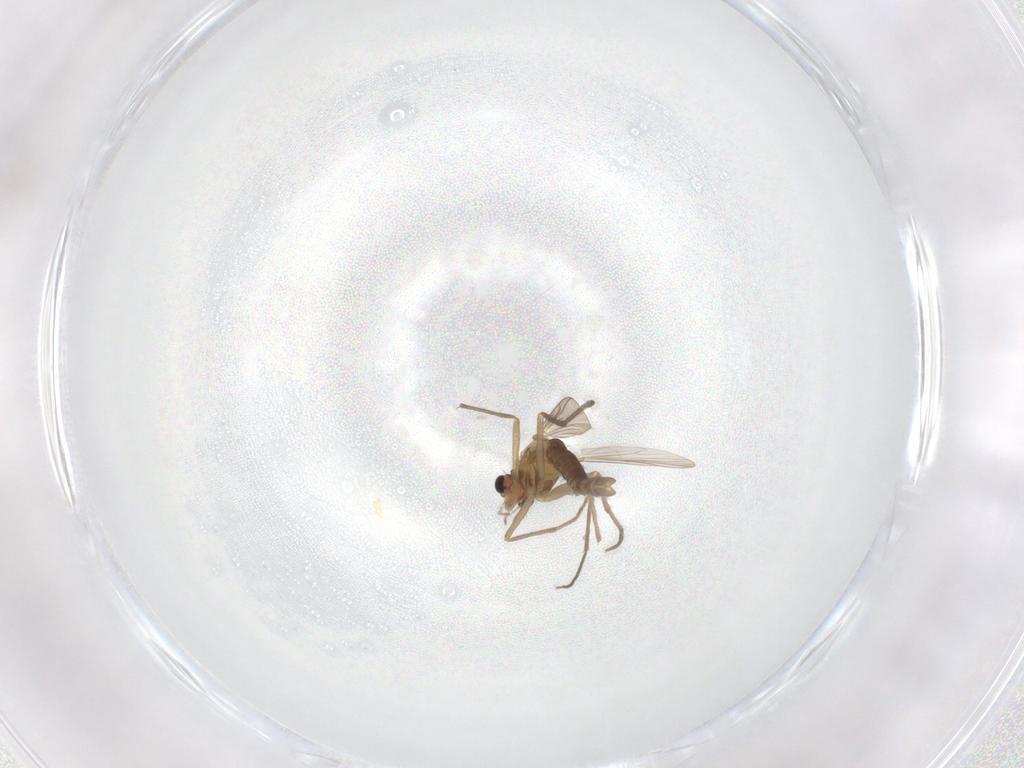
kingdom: Animalia
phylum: Arthropoda
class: Insecta
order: Diptera
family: Chironomidae
